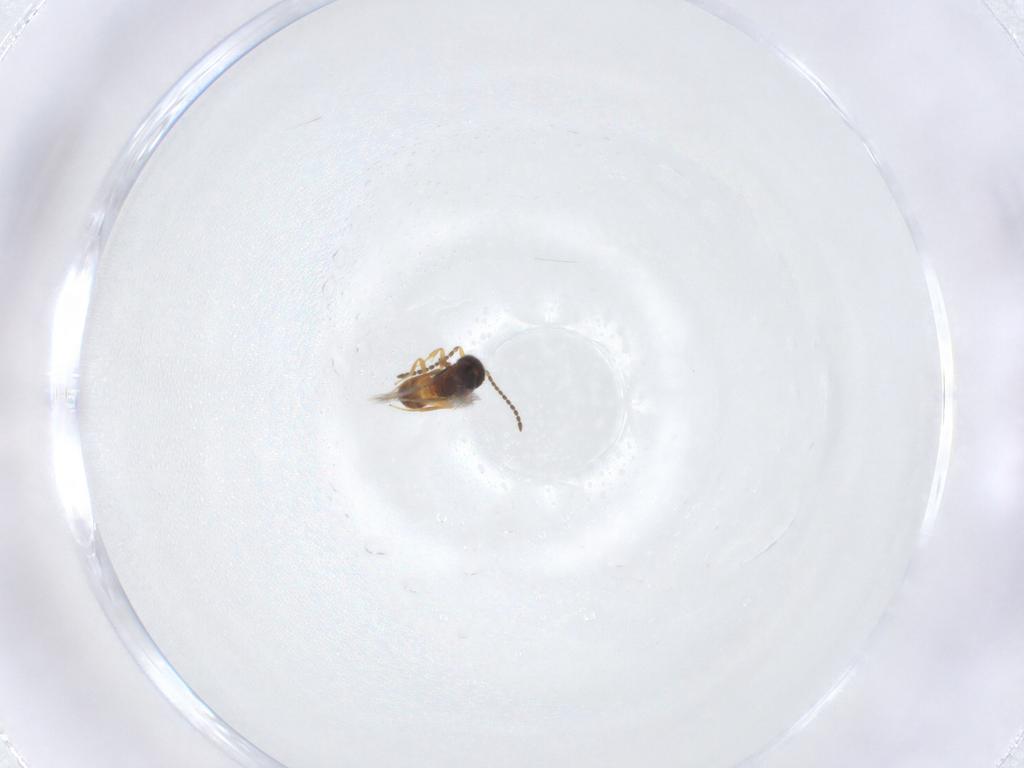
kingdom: Animalia
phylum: Arthropoda
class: Insecta
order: Hymenoptera
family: Scelionidae
